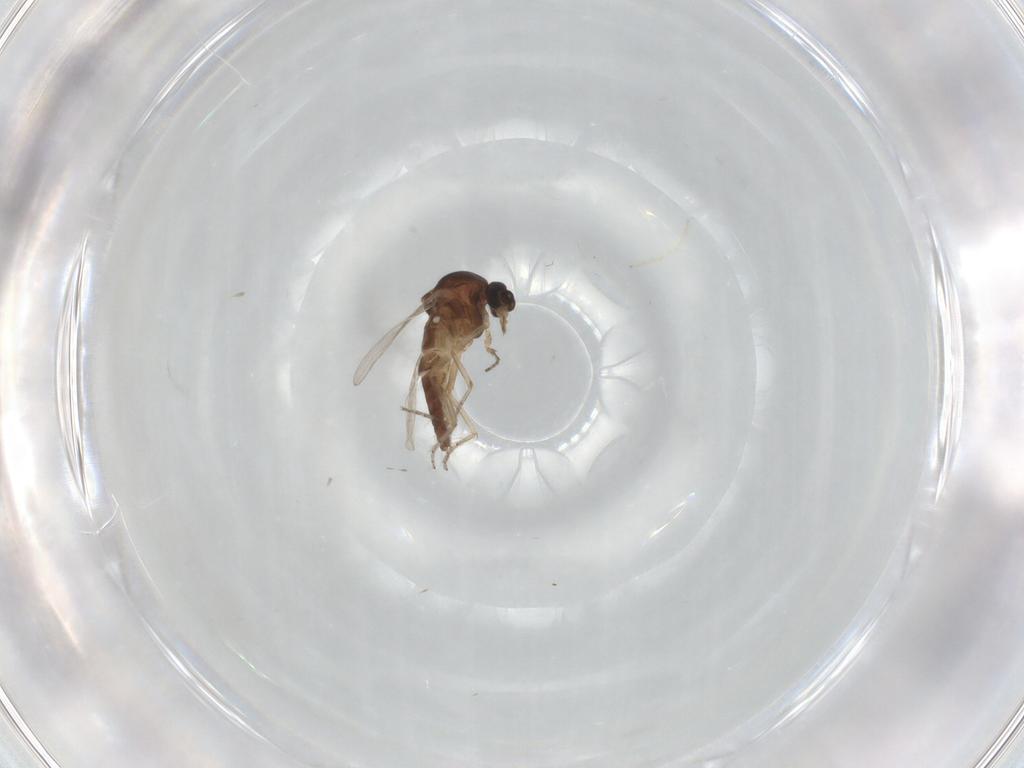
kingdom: Animalia
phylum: Arthropoda
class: Insecta
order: Diptera
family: Ceratopogonidae
